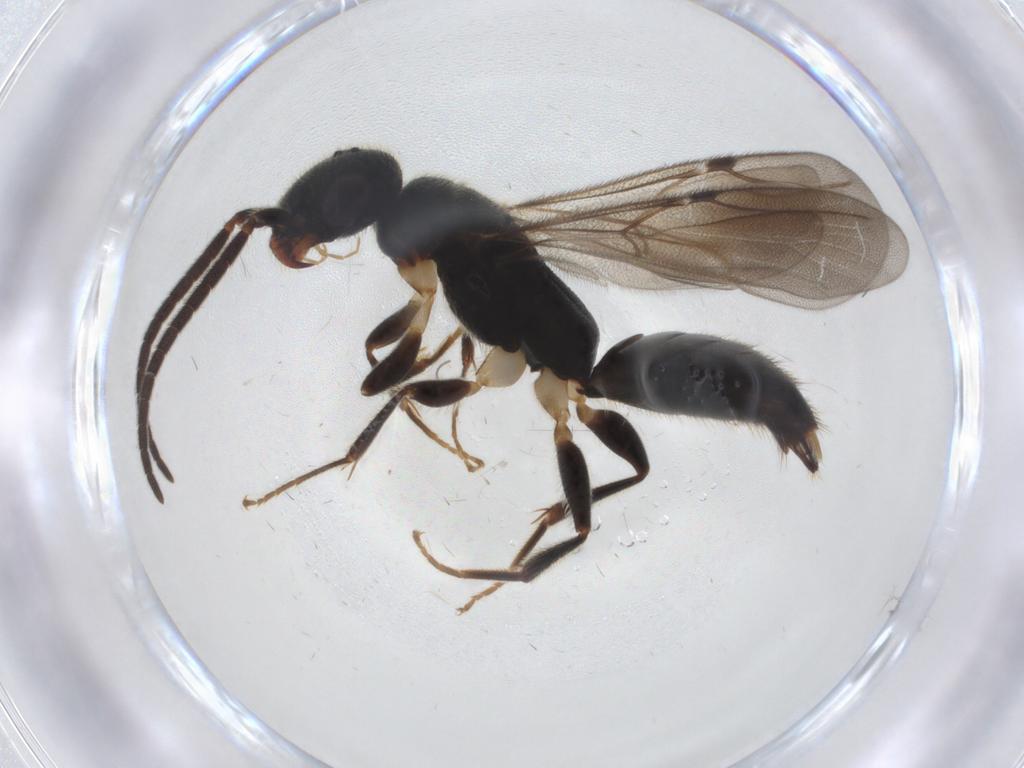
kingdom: Animalia
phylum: Arthropoda
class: Insecta
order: Hymenoptera
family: Bethylidae
